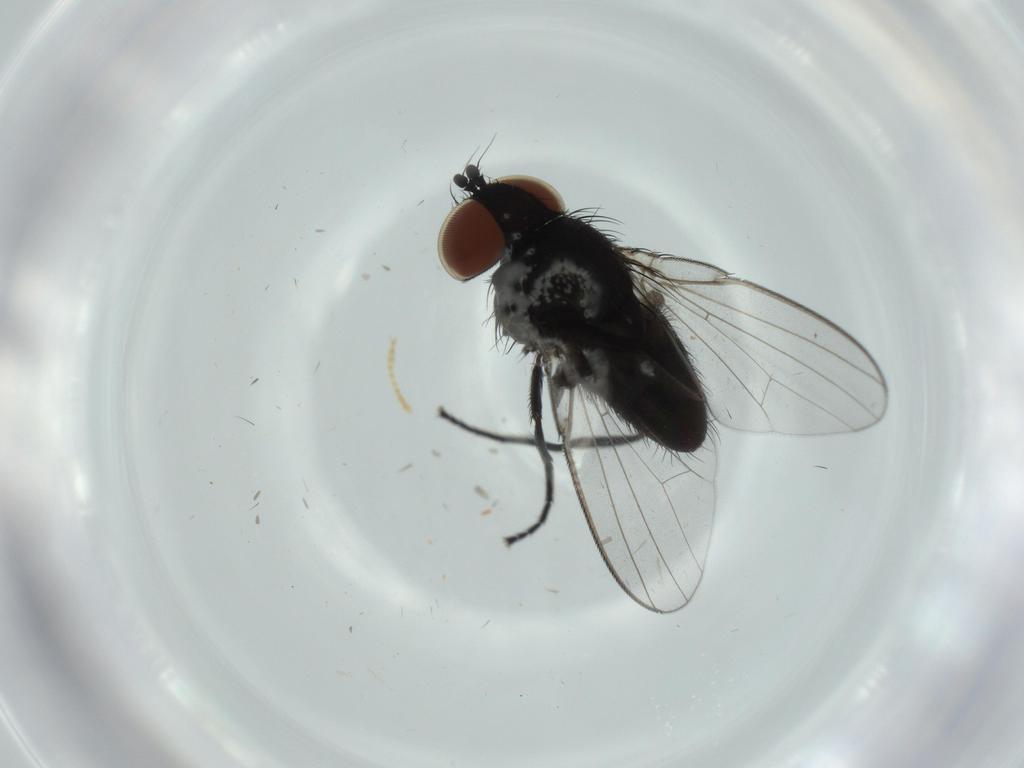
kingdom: Animalia
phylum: Arthropoda
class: Insecta
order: Diptera
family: Milichiidae
